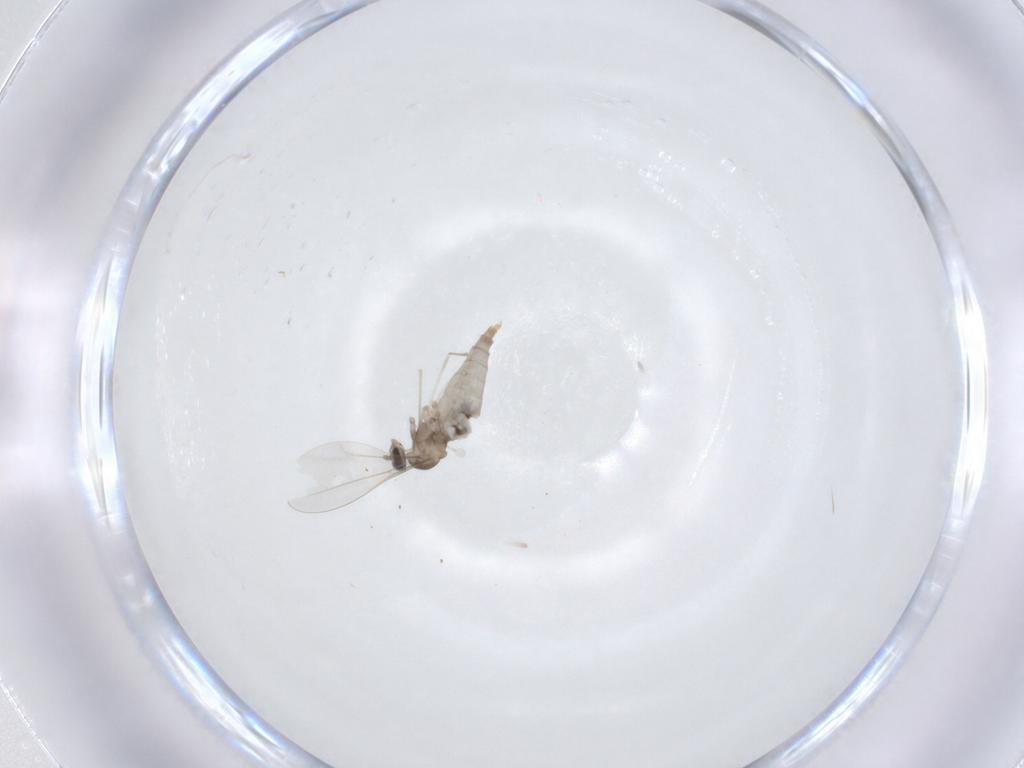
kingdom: Animalia
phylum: Arthropoda
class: Insecta
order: Diptera
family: Cecidomyiidae
